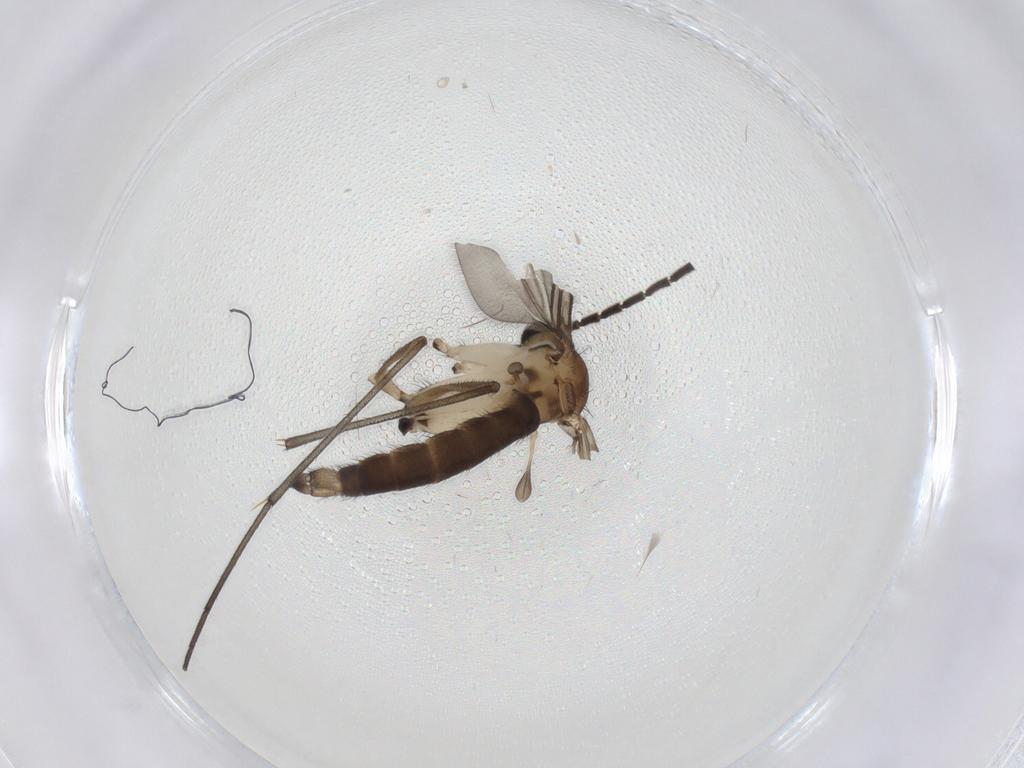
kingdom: Animalia
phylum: Arthropoda
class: Insecta
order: Diptera
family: Sciaridae
